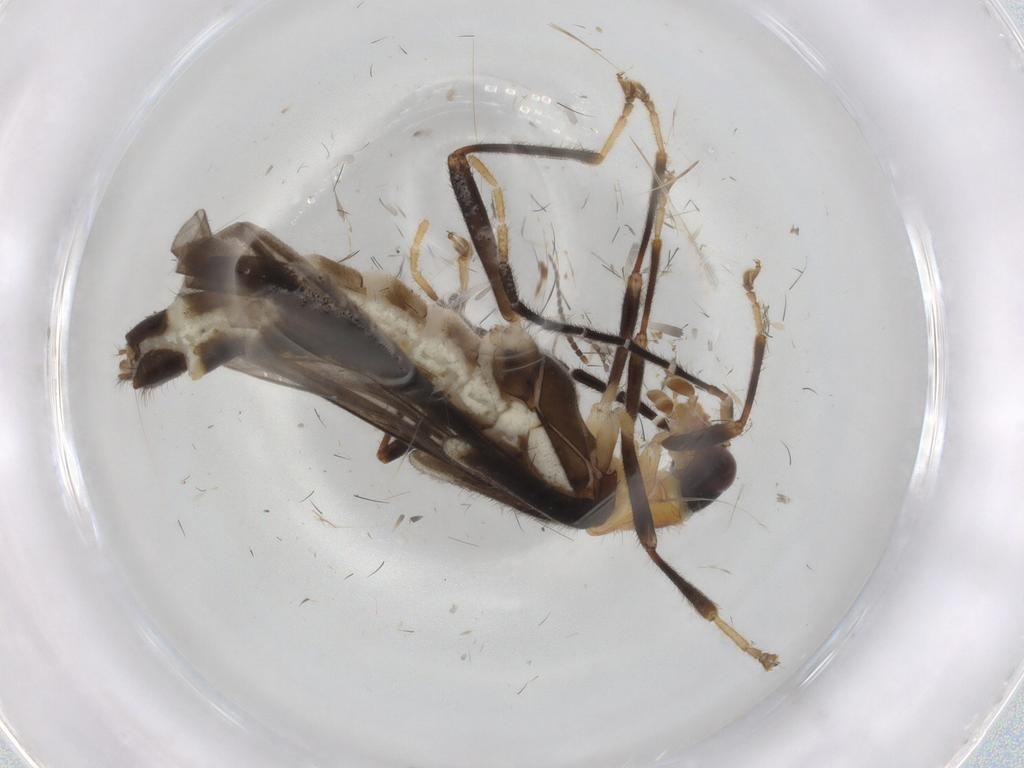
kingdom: Animalia
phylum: Arthropoda
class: Insecta
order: Coleoptera
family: Cantharidae
